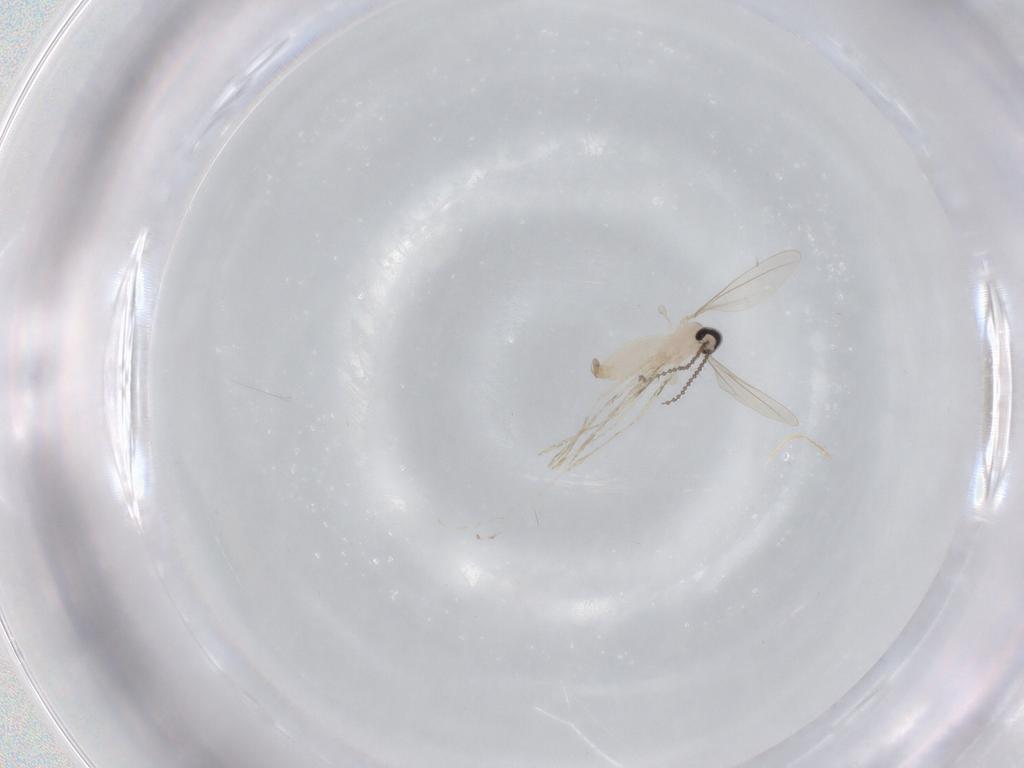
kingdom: Animalia
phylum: Arthropoda
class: Insecta
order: Diptera
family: Cecidomyiidae
